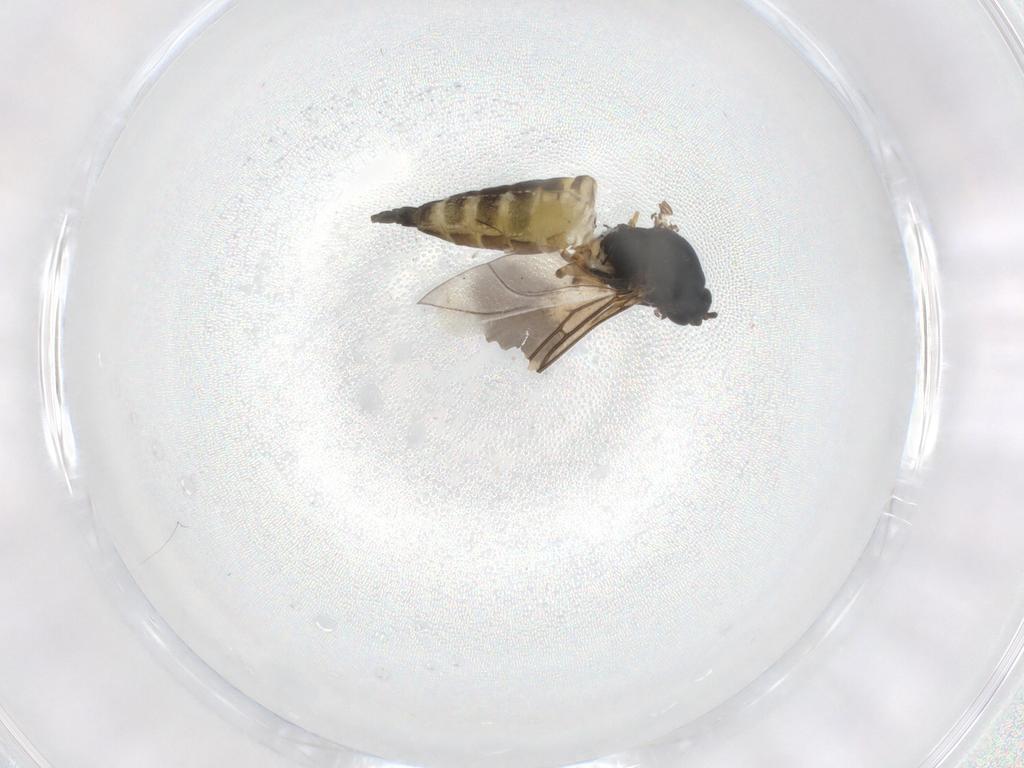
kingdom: Animalia
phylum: Arthropoda
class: Insecta
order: Diptera
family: Sciaridae
